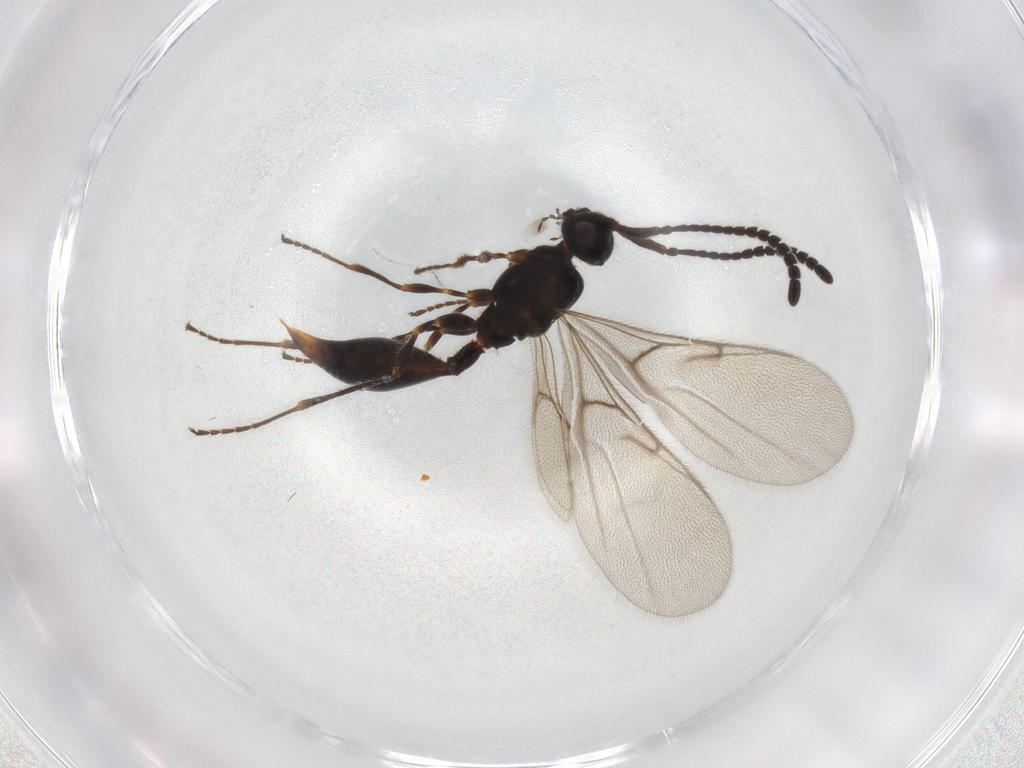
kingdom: Animalia
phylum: Arthropoda
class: Insecta
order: Hymenoptera
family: Diapriidae
